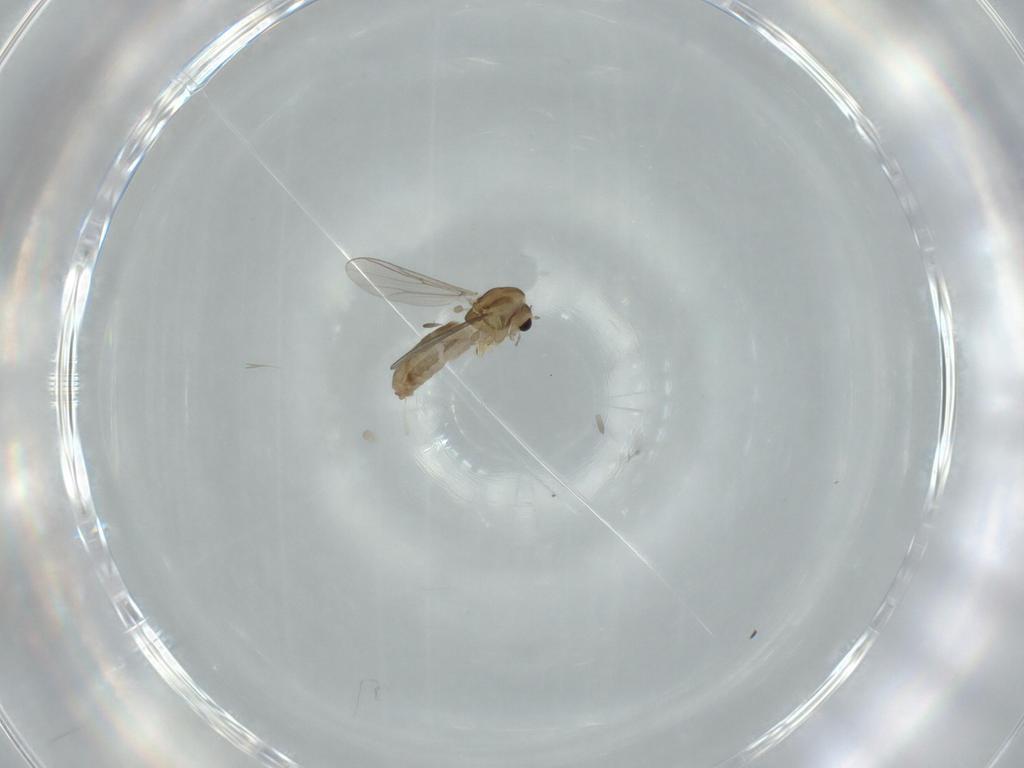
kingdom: Animalia
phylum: Arthropoda
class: Insecta
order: Diptera
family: Chironomidae
